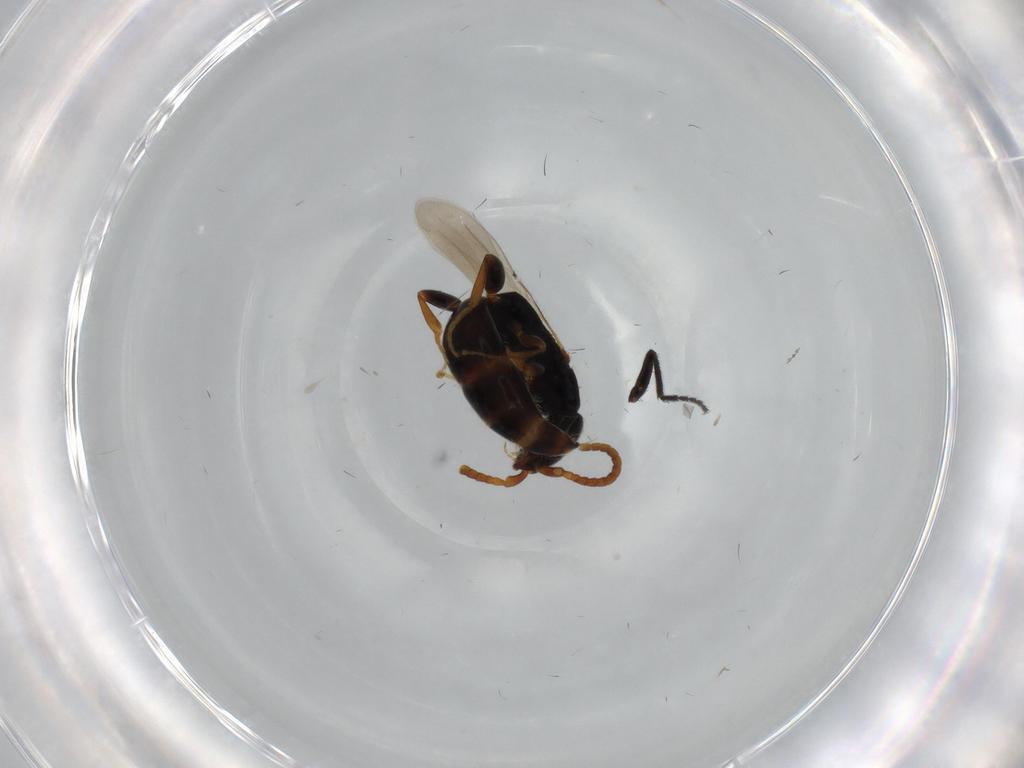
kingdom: Animalia
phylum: Arthropoda
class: Insecta
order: Hymenoptera
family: Bethylidae
